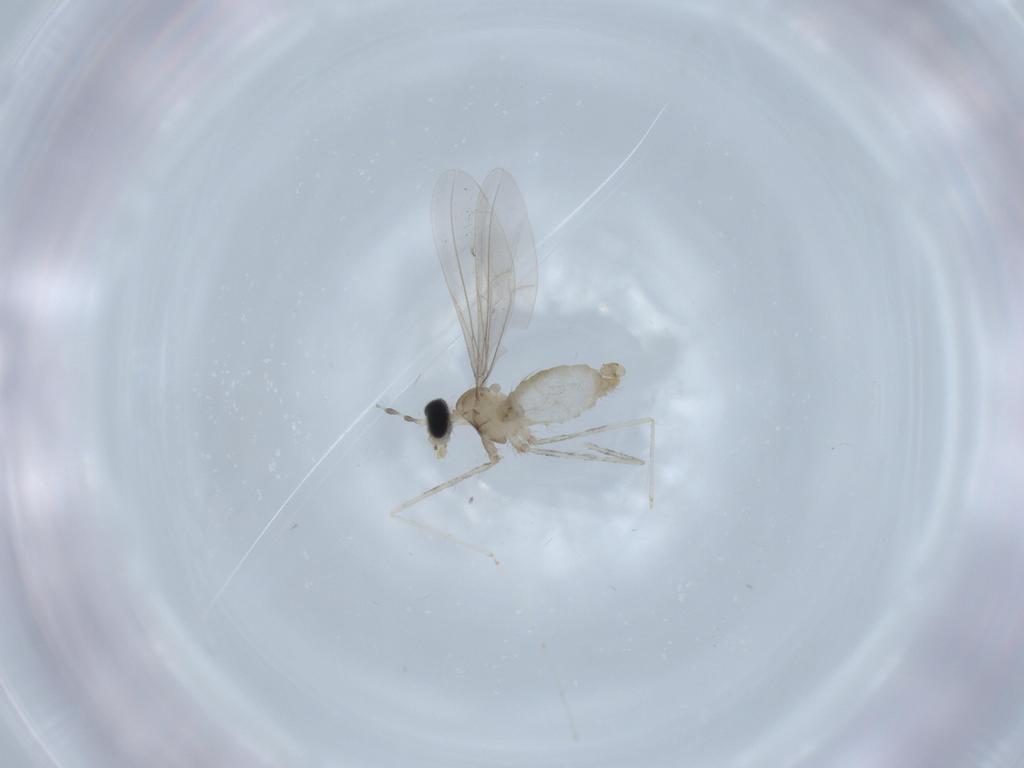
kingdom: Animalia
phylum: Arthropoda
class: Insecta
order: Diptera
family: Cecidomyiidae
